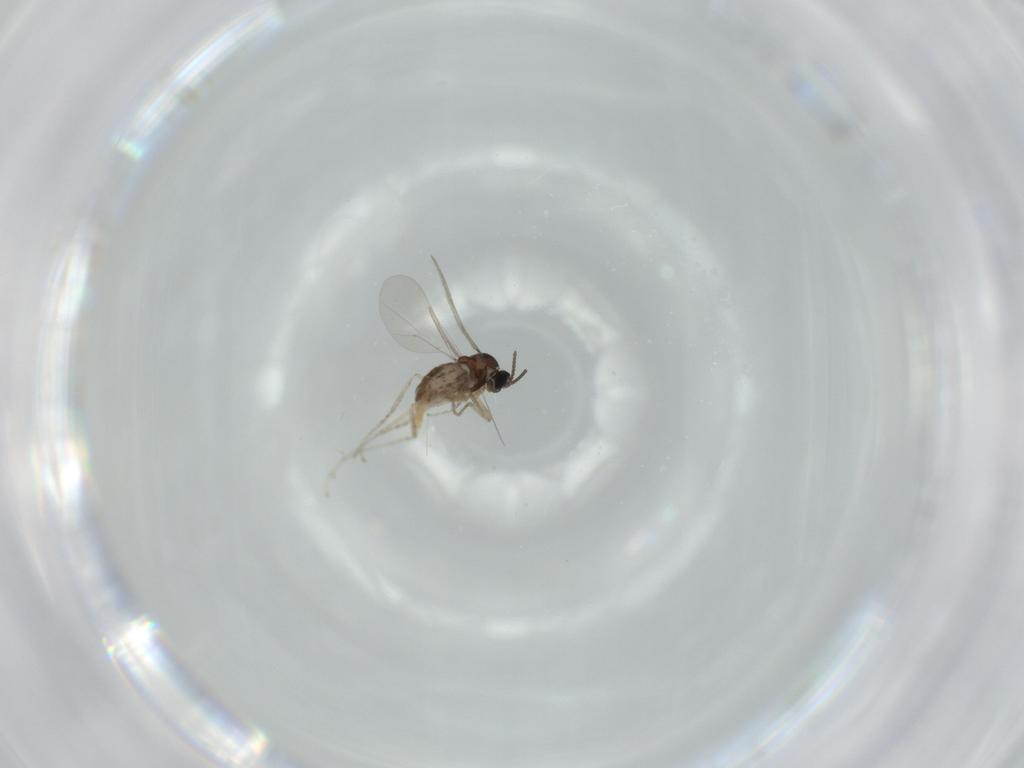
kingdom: Animalia
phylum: Arthropoda
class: Insecta
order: Diptera
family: Cecidomyiidae
